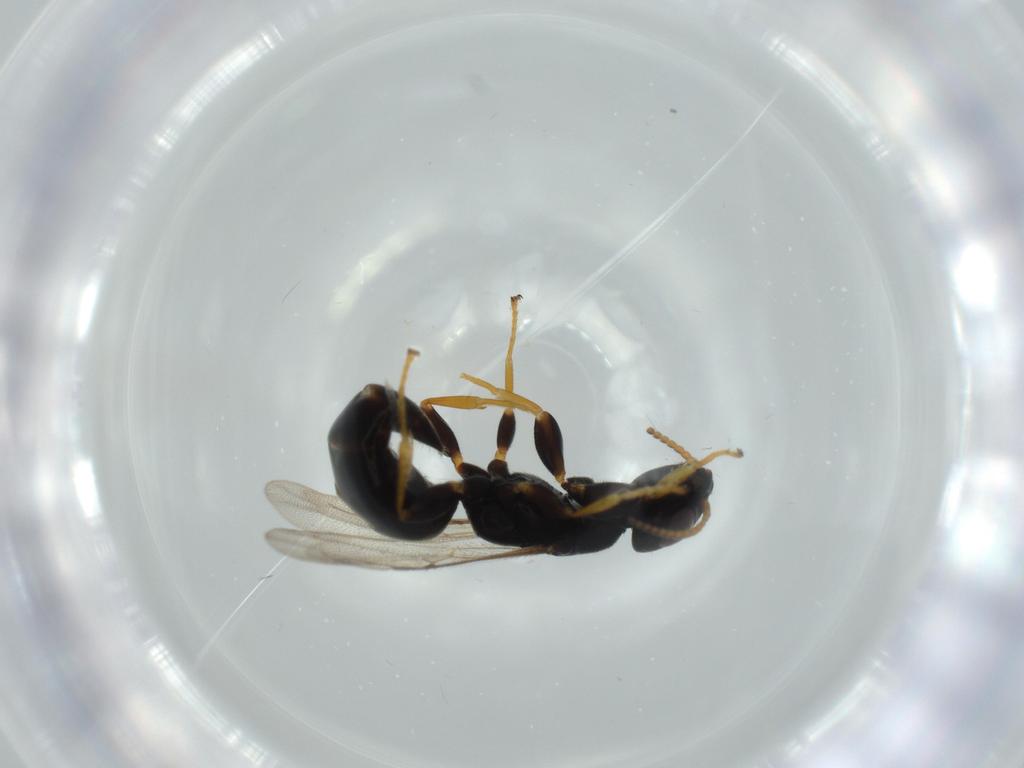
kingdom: Animalia
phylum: Arthropoda
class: Insecta
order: Hymenoptera
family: Bethylidae
